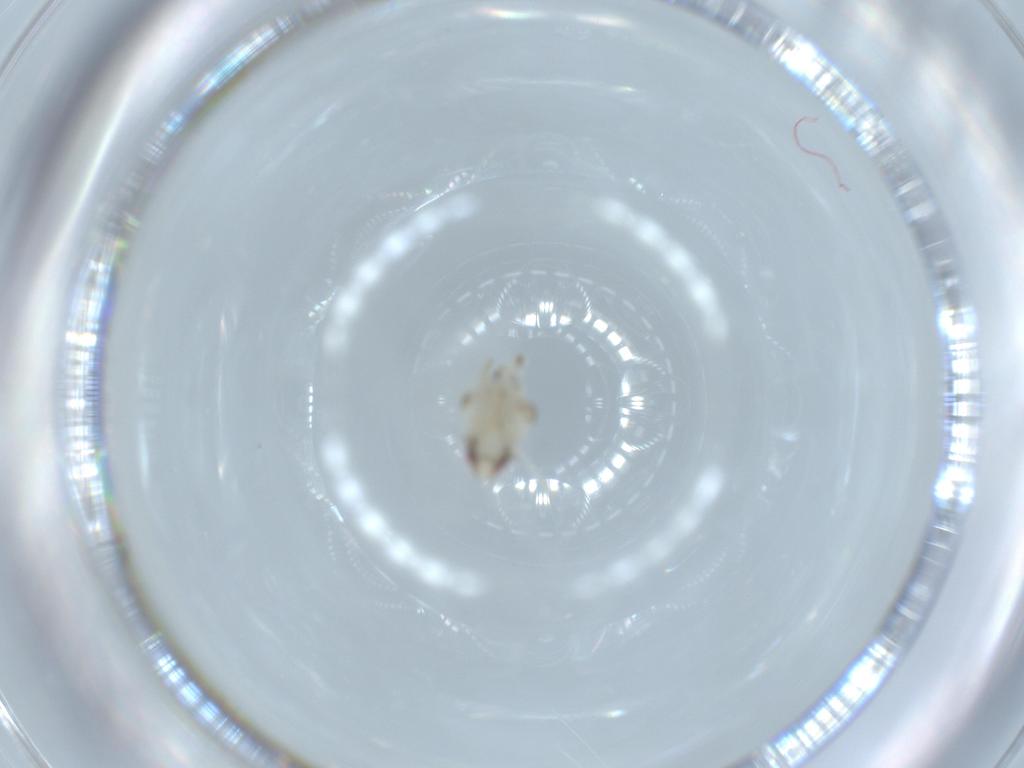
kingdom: Animalia
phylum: Arthropoda
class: Insecta
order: Hemiptera
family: Nogodinidae
